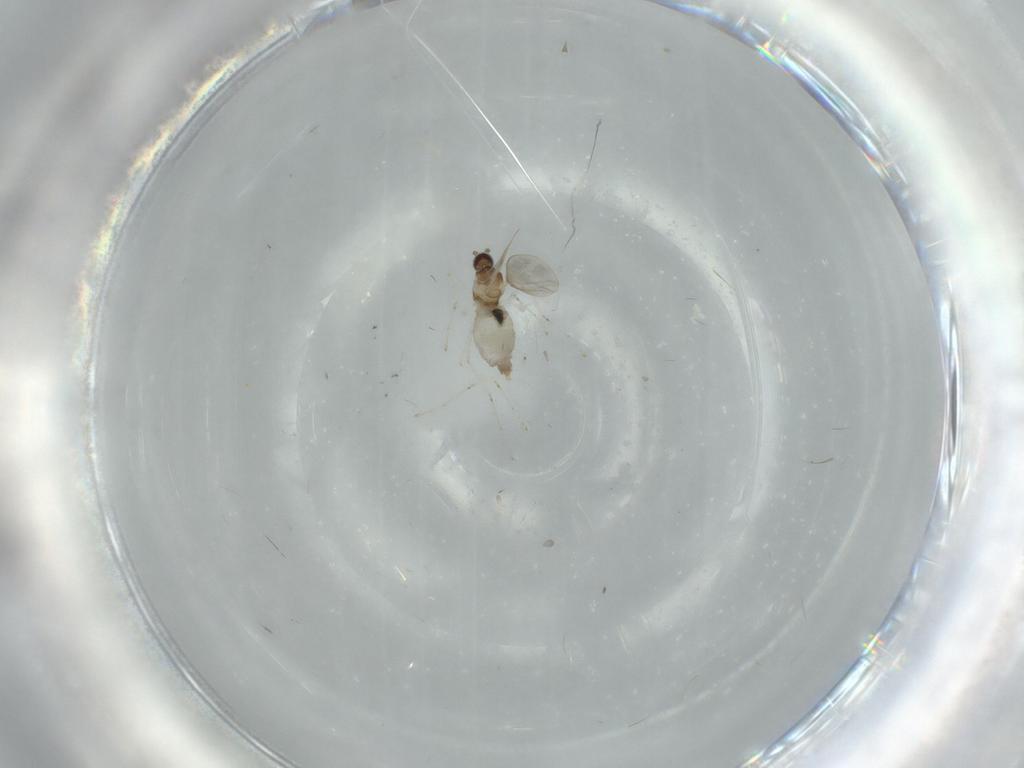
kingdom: Animalia
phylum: Arthropoda
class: Insecta
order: Diptera
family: Cecidomyiidae
